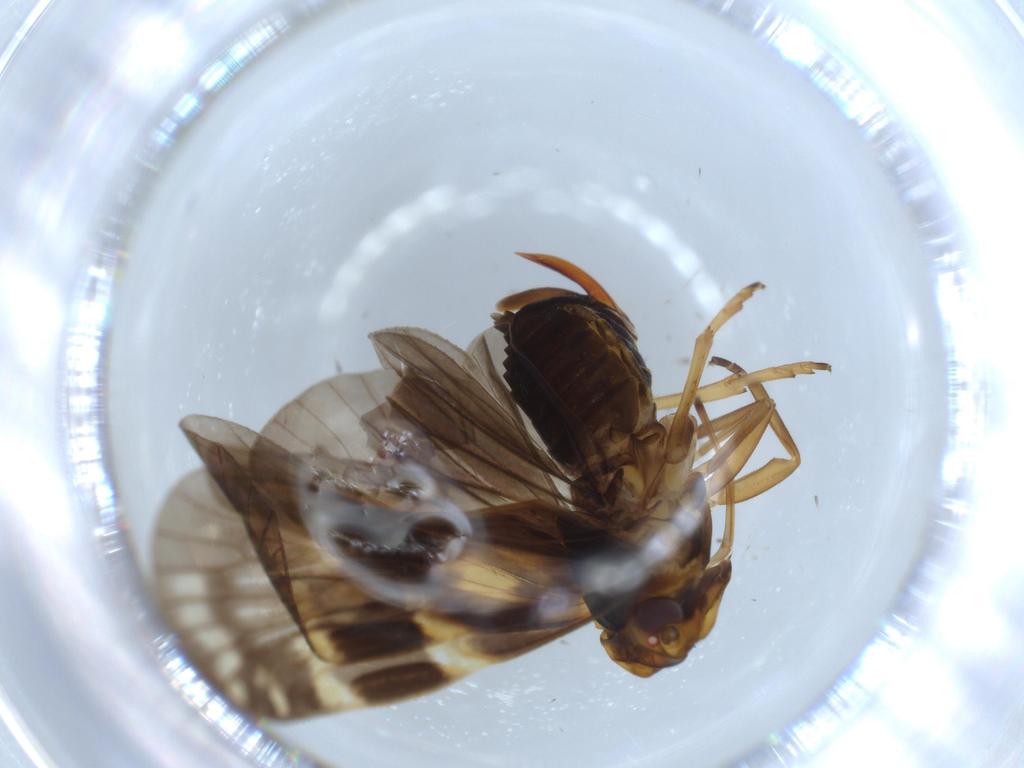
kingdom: Animalia
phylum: Arthropoda
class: Insecta
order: Hemiptera
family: Cixiidae
